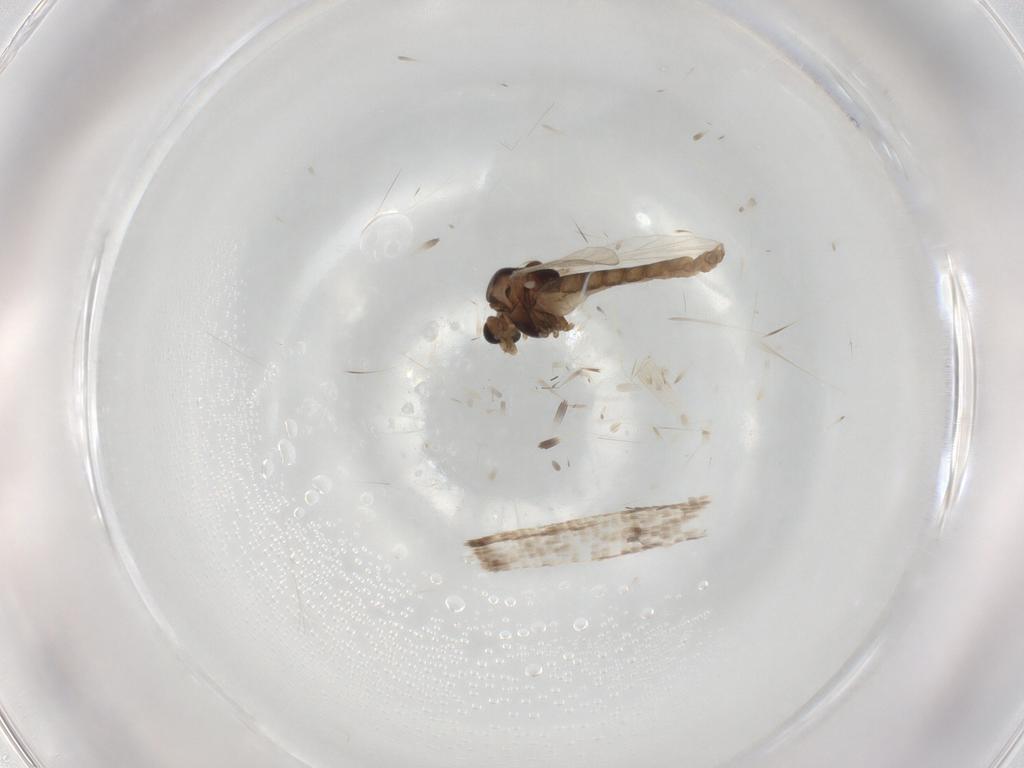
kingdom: Animalia
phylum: Arthropoda
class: Insecta
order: Diptera
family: Chironomidae
